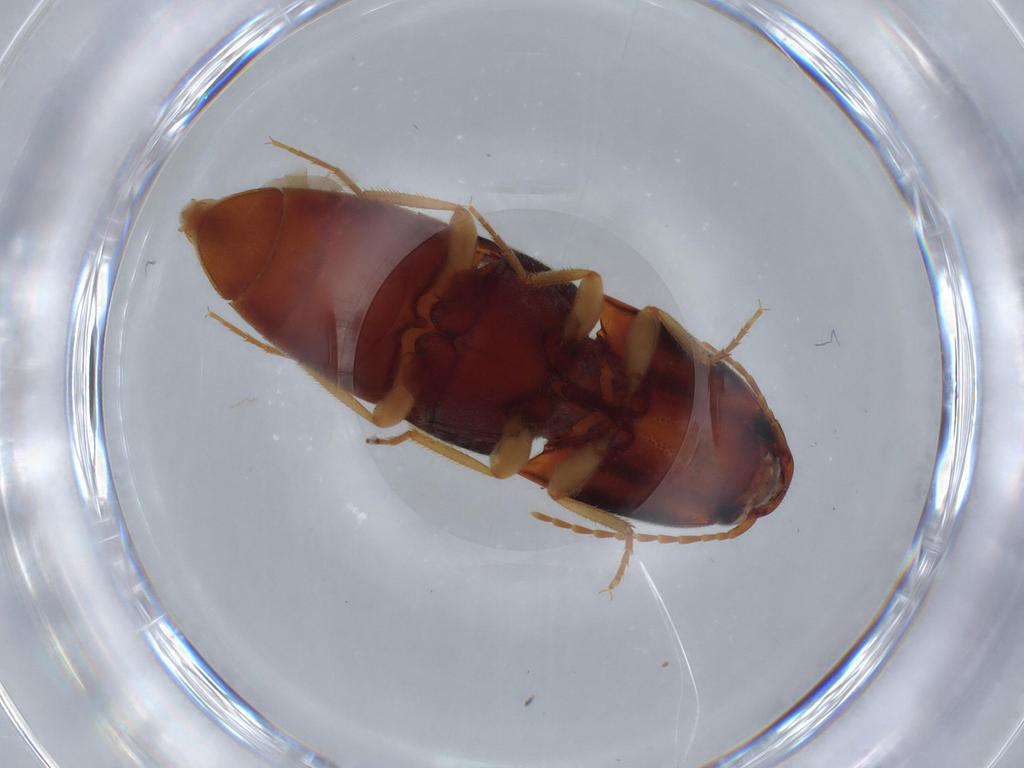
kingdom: Animalia
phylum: Arthropoda
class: Insecta
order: Coleoptera
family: Elateridae
